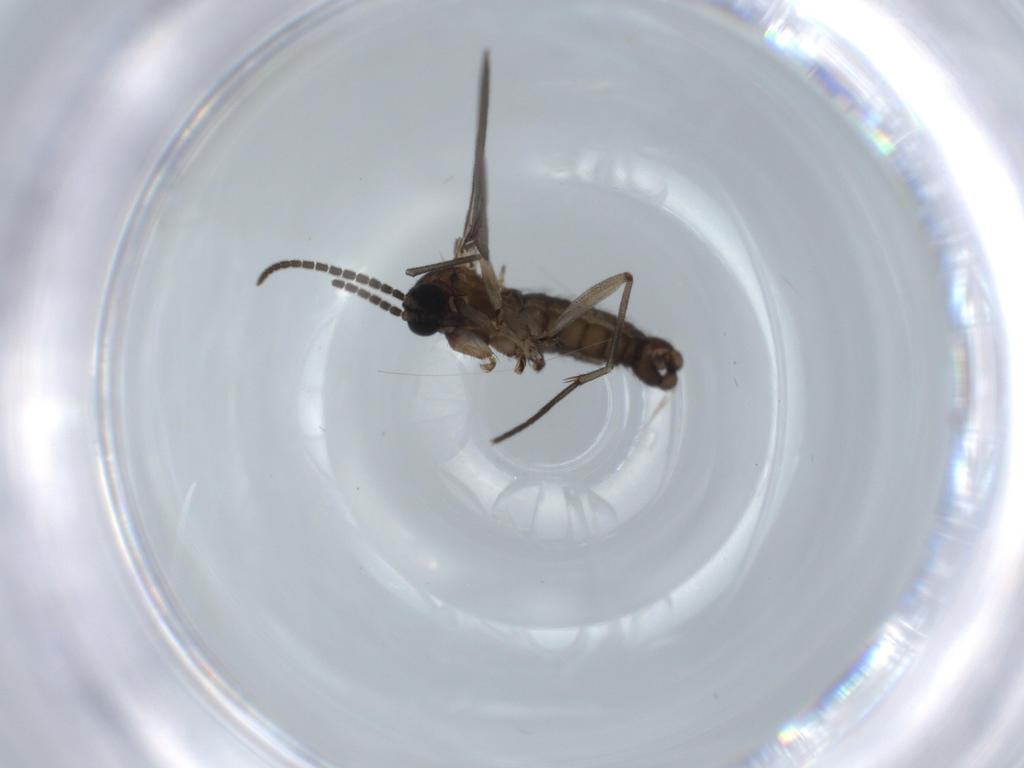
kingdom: Animalia
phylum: Arthropoda
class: Insecta
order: Diptera
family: Sciaridae
